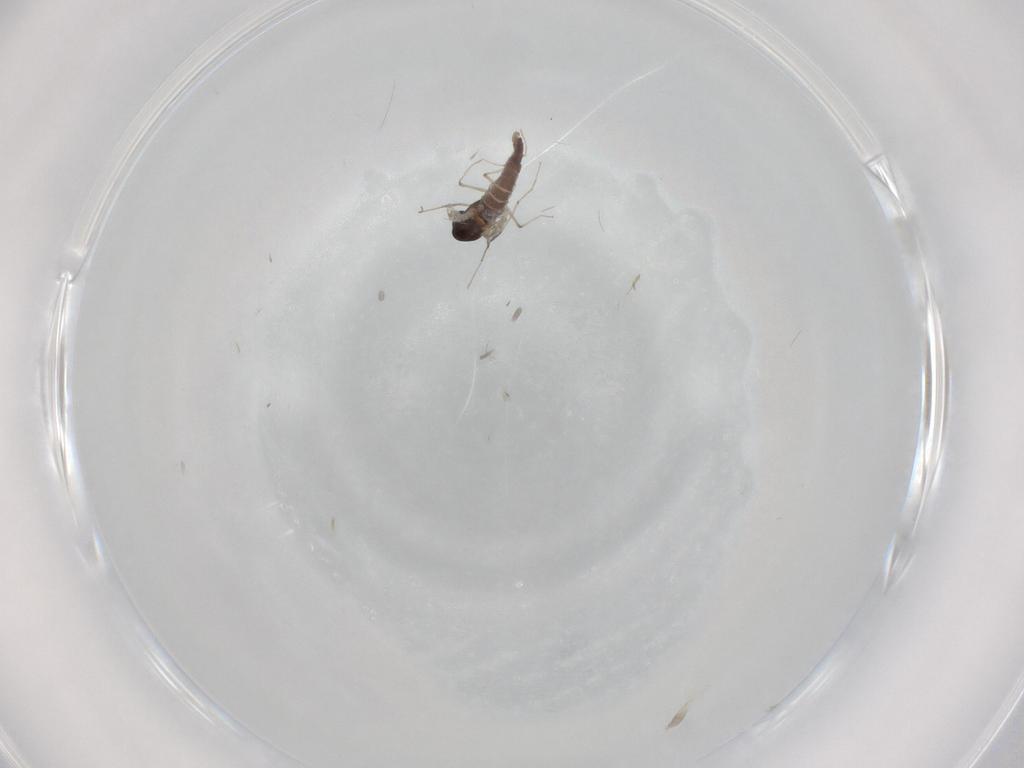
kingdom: Animalia
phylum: Arthropoda
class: Insecta
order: Diptera
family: Chironomidae
